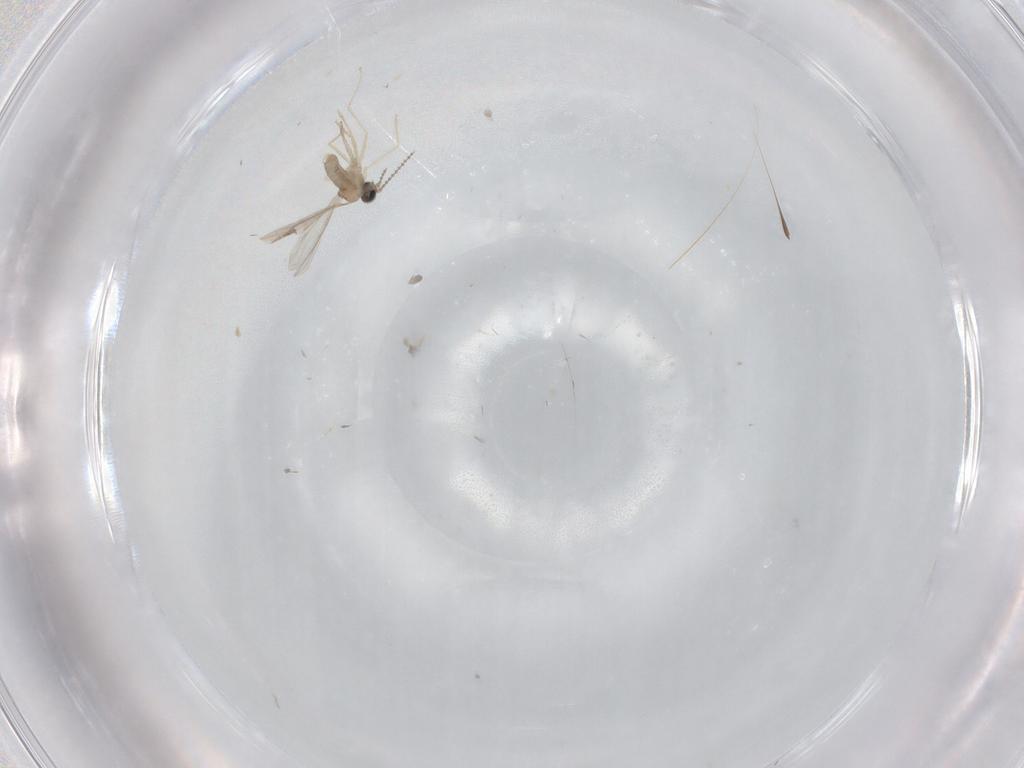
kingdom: Animalia
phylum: Arthropoda
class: Insecta
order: Diptera
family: Cecidomyiidae
